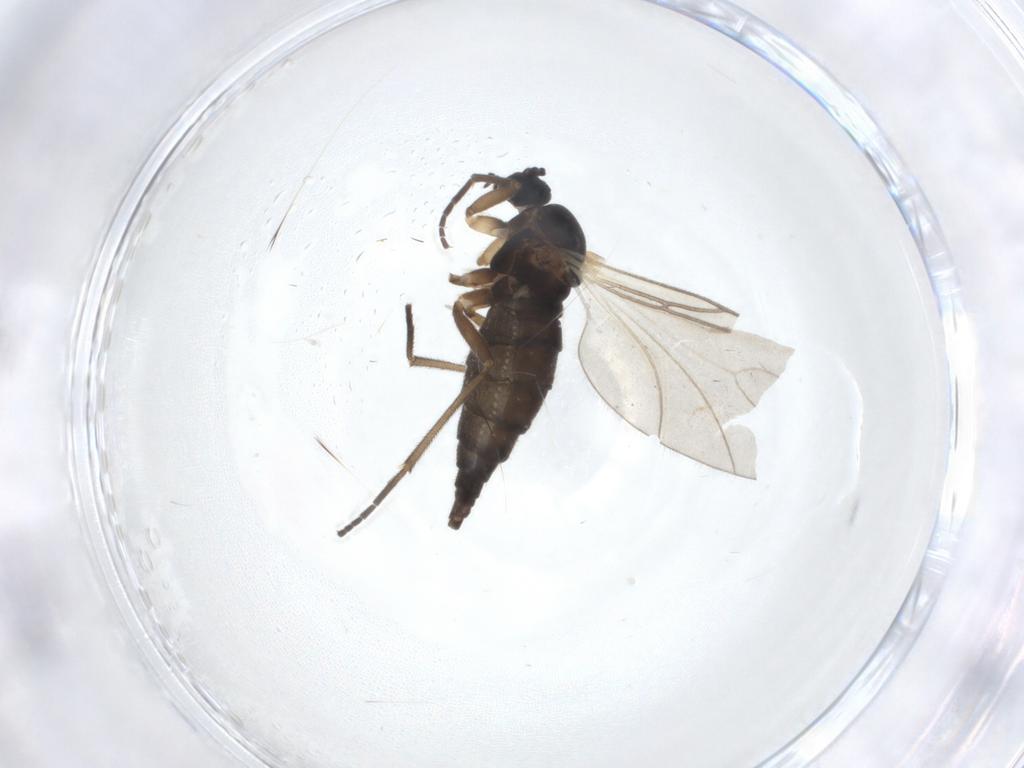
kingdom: Animalia
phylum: Arthropoda
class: Insecta
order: Diptera
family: Sciaridae
